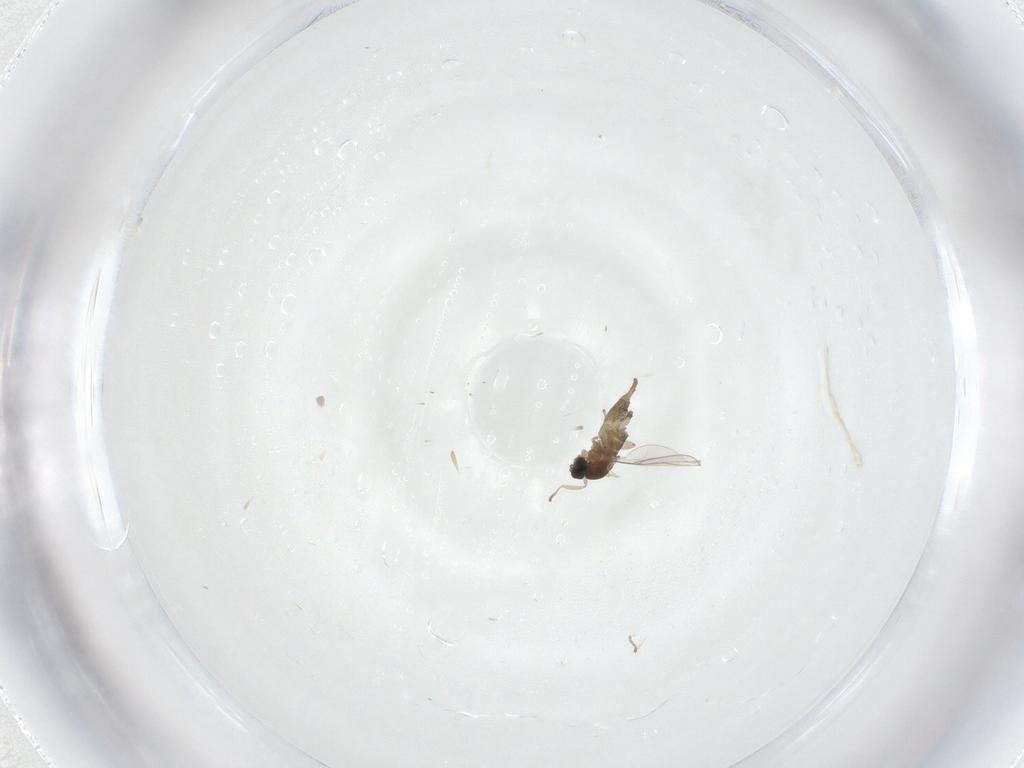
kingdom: Animalia
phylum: Arthropoda
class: Insecta
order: Diptera
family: Cecidomyiidae
